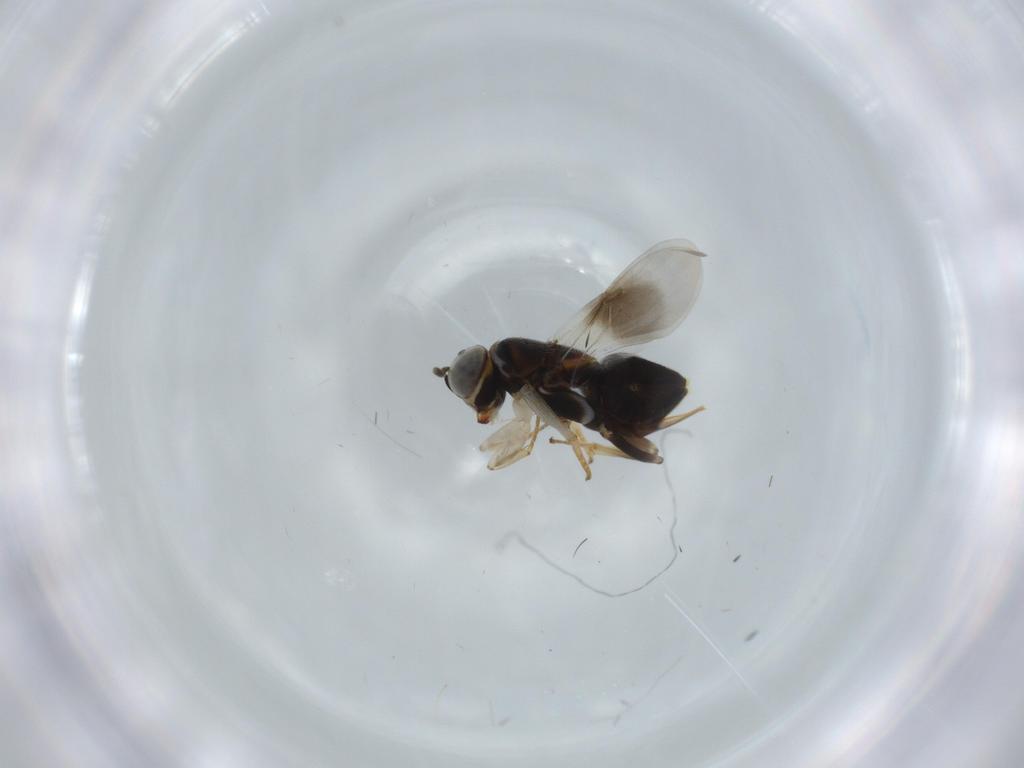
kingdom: Animalia
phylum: Arthropoda
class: Insecta
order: Hymenoptera
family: Eurytomidae
